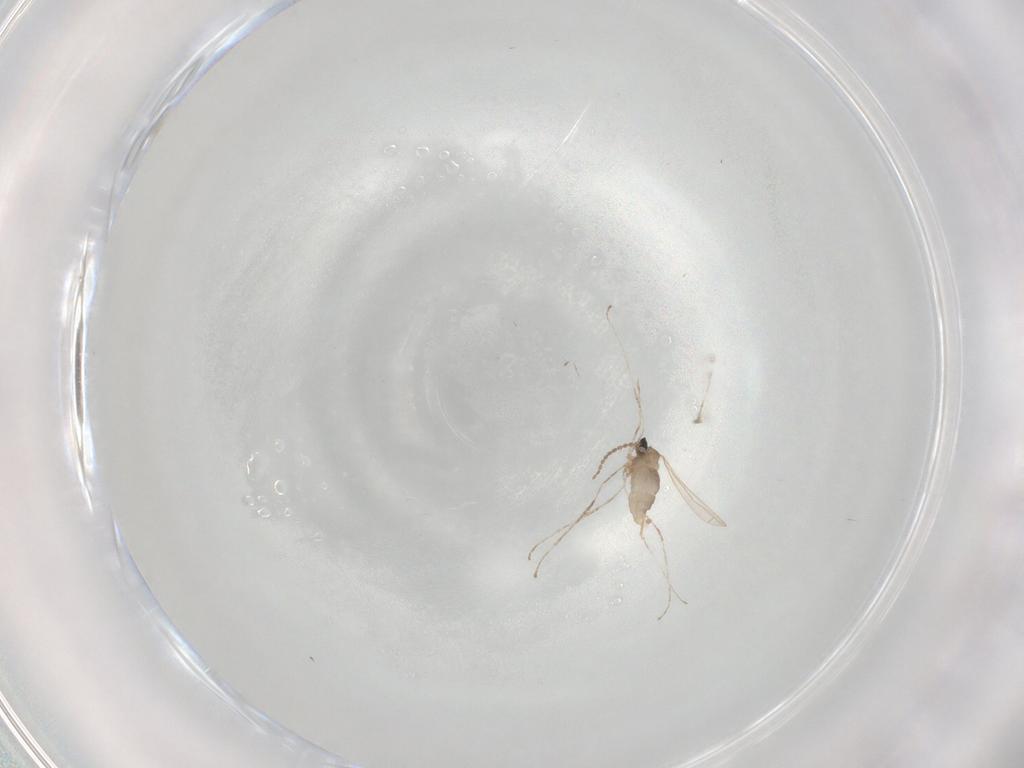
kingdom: Animalia
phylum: Arthropoda
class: Insecta
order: Diptera
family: Cecidomyiidae
